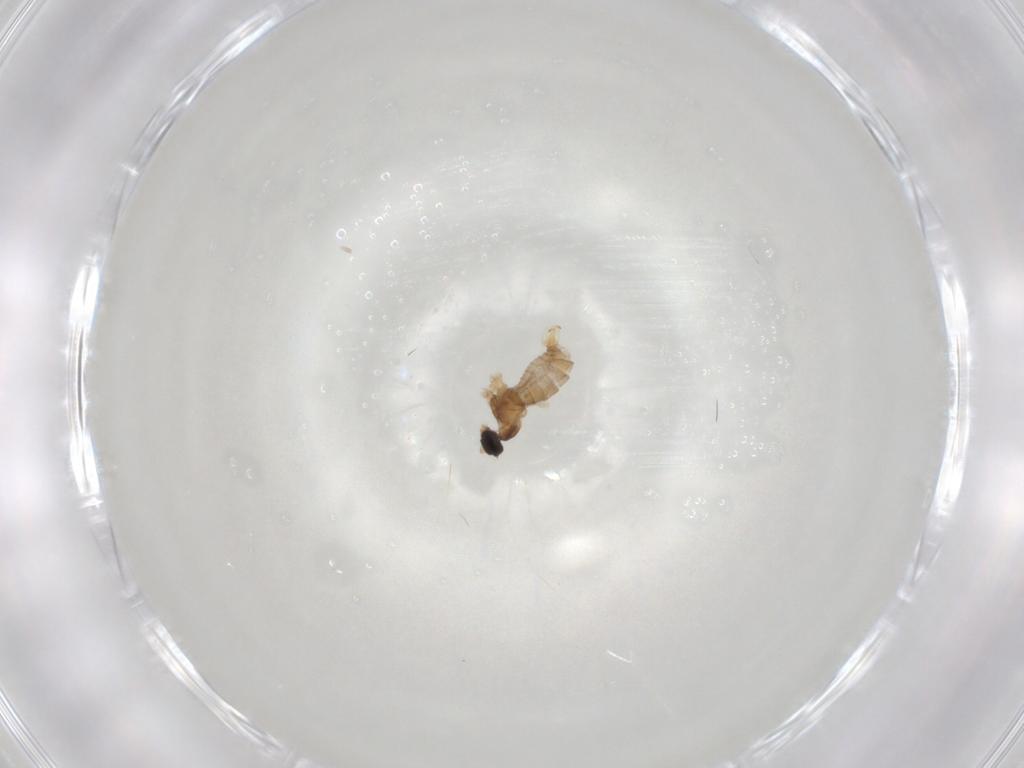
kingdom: Animalia
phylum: Arthropoda
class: Insecta
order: Diptera
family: Cecidomyiidae
